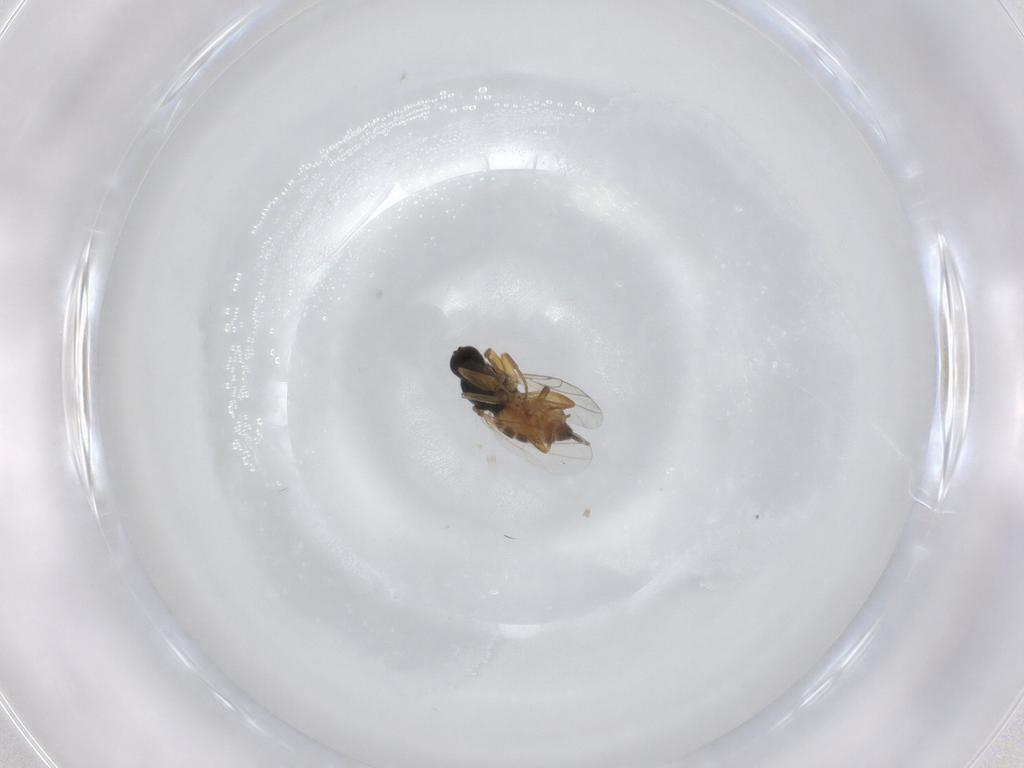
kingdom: Animalia
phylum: Arthropoda
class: Insecta
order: Diptera
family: Hybotidae
